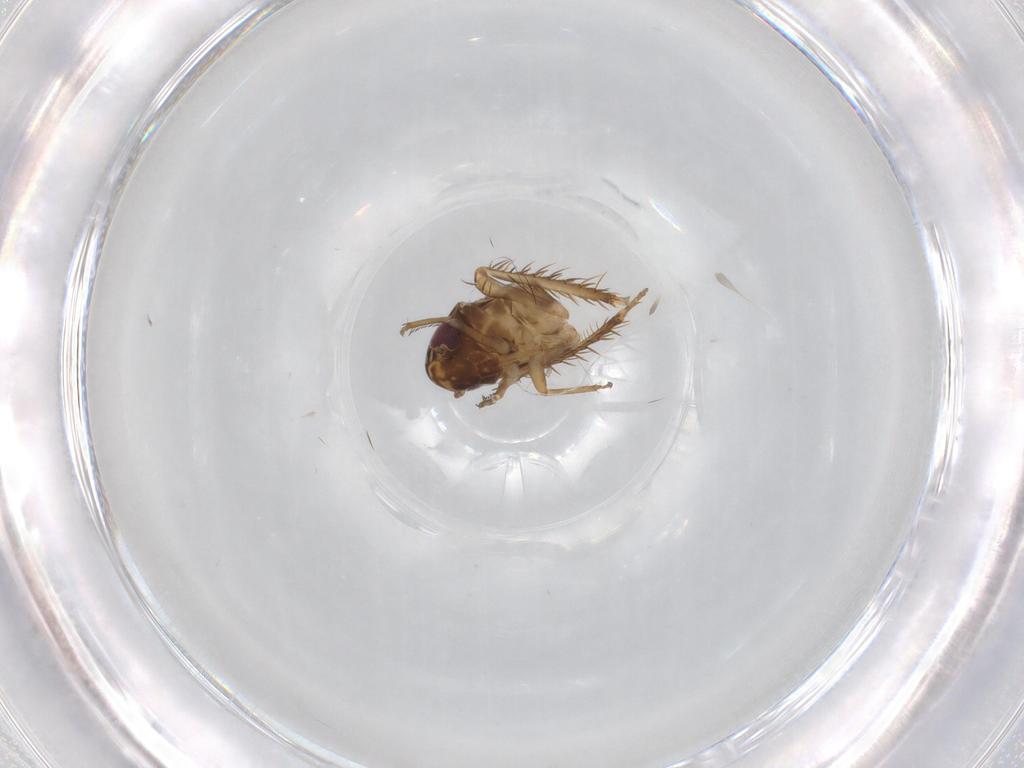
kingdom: Animalia
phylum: Arthropoda
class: Insecta
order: Hemiptera
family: Cicadellidae
